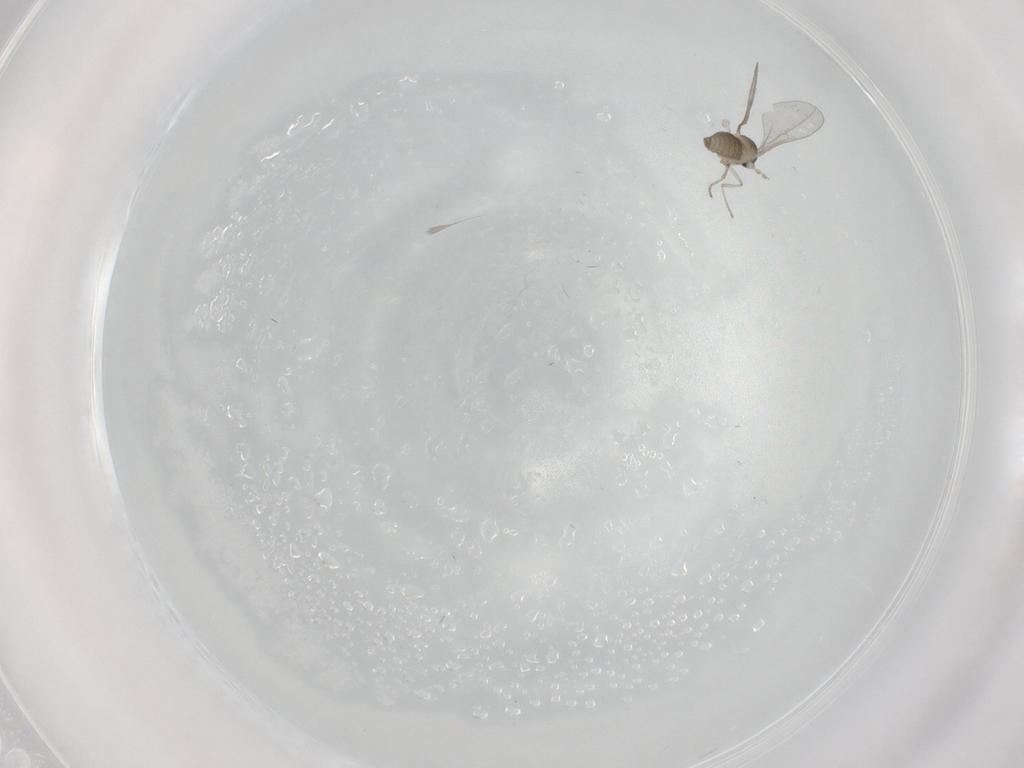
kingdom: Animalia
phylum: Arthropoda
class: Insecta
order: Diptera
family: Cecidomyiidae
